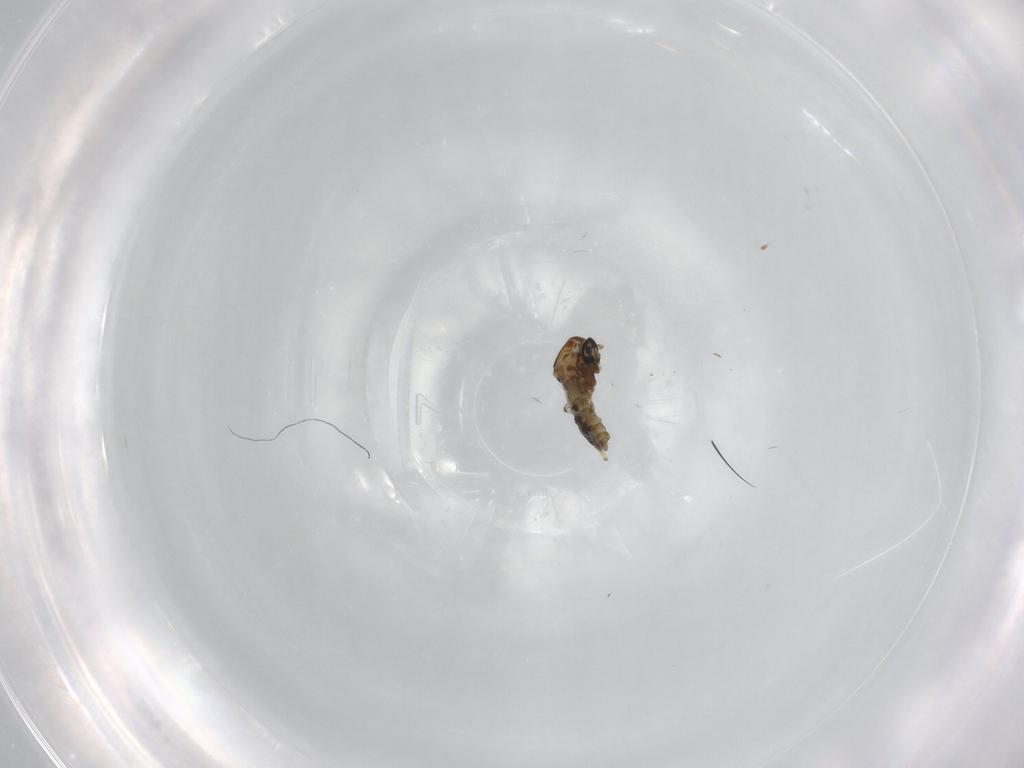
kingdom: Animalia
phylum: Arthropoda
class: Insecta
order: Diptera
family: Ceratopogonidae
